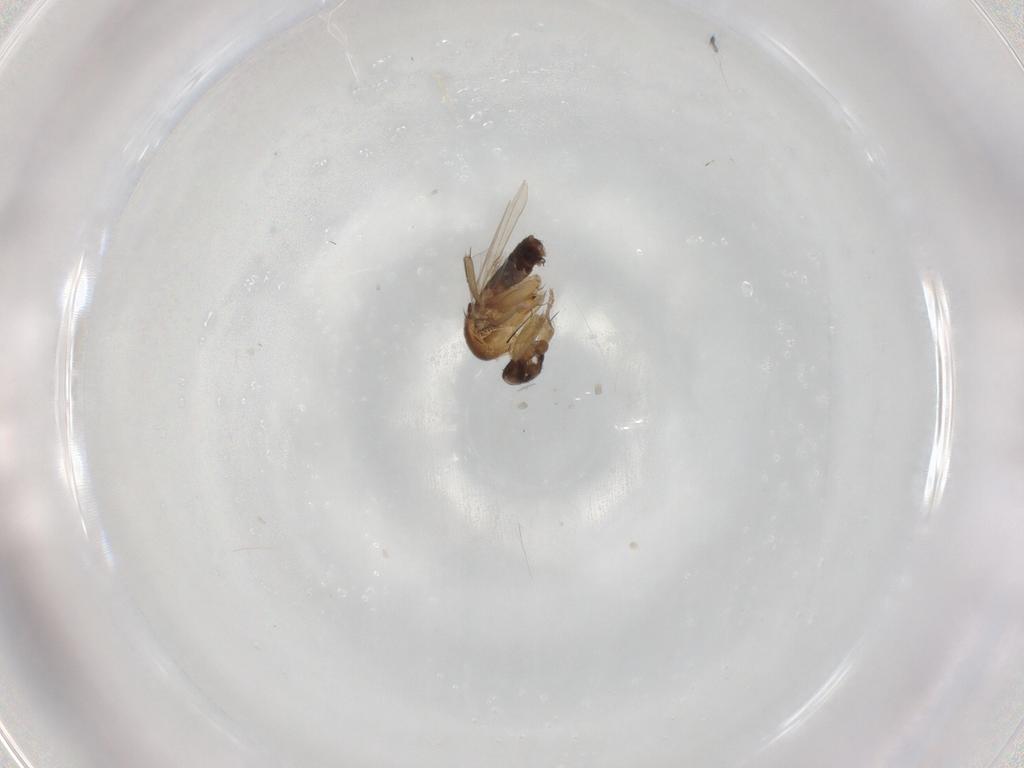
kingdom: Animalia
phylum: Arthropoda
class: Insecta
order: Diptera
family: Phoridae
